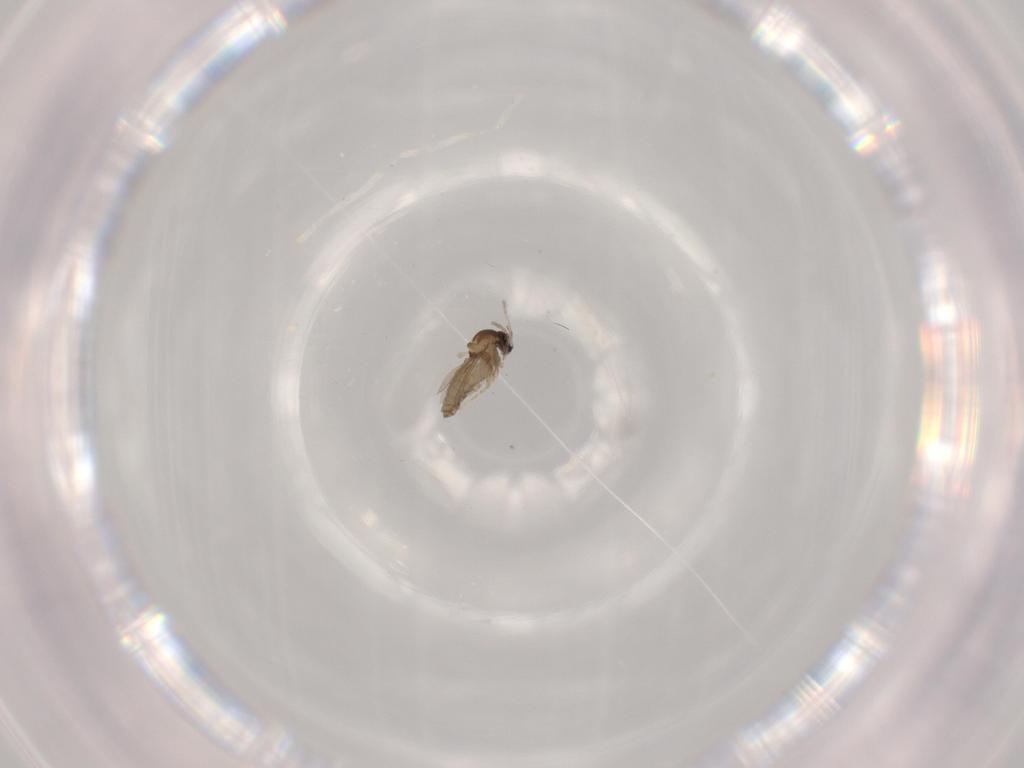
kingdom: Animalia
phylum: Arthropoda
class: Insecta
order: Diptera
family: Cecidomyiidae
